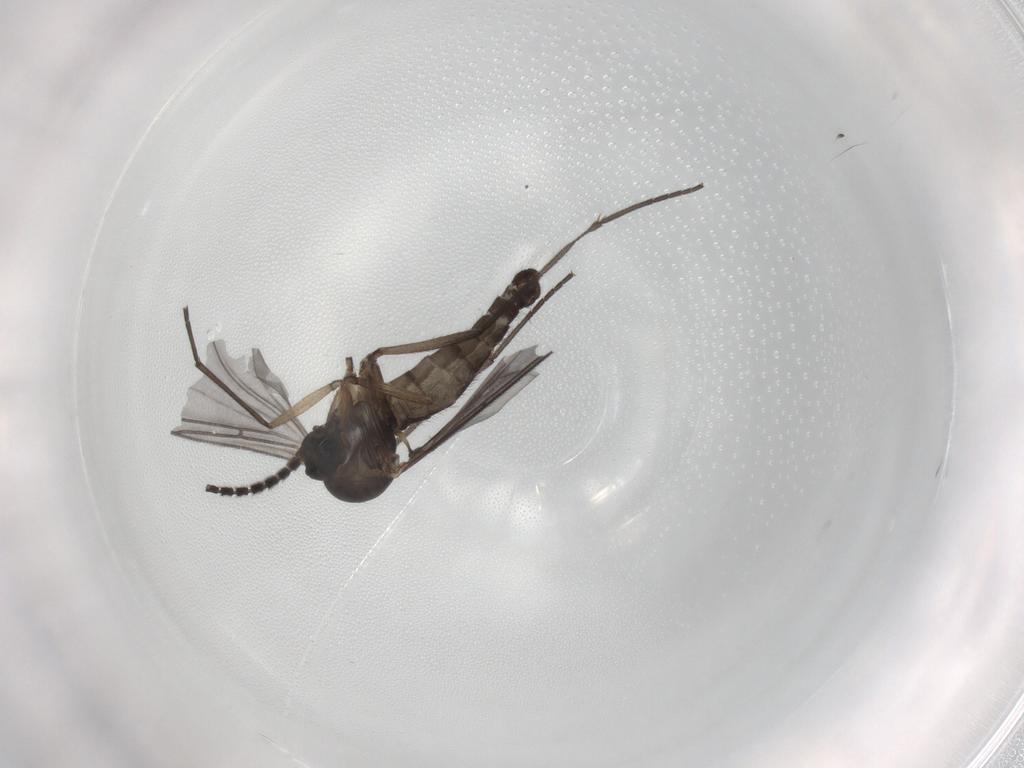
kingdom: Animalia
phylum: Arthropoda
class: Insecta
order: Diptera
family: Sciaridae
